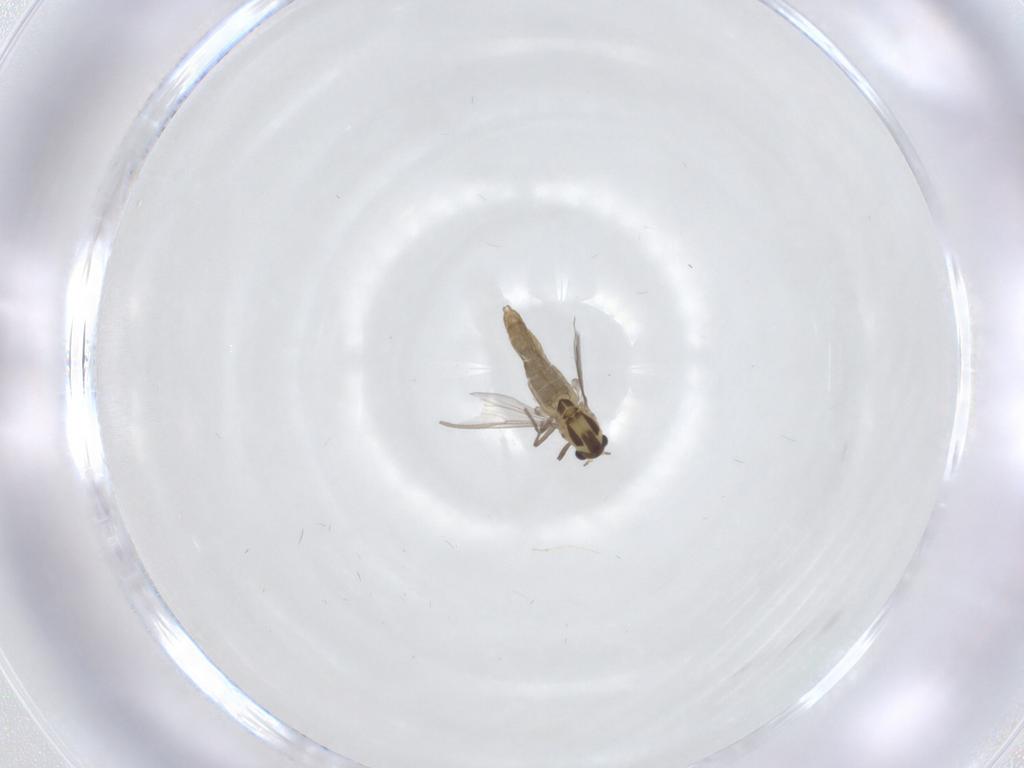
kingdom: Animalia
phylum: Arthropoda
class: Insecta
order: Diptera
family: Chironomidae
